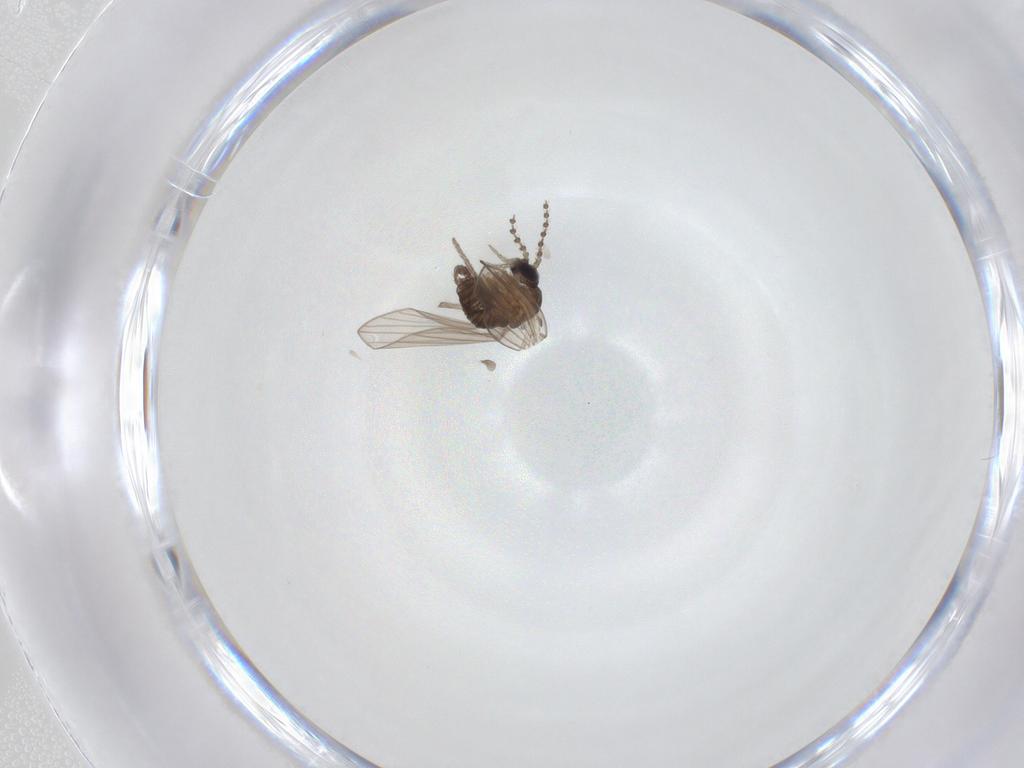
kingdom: Animalia
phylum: Arthropoda
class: Insecta
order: Diptera
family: Psychodidae
